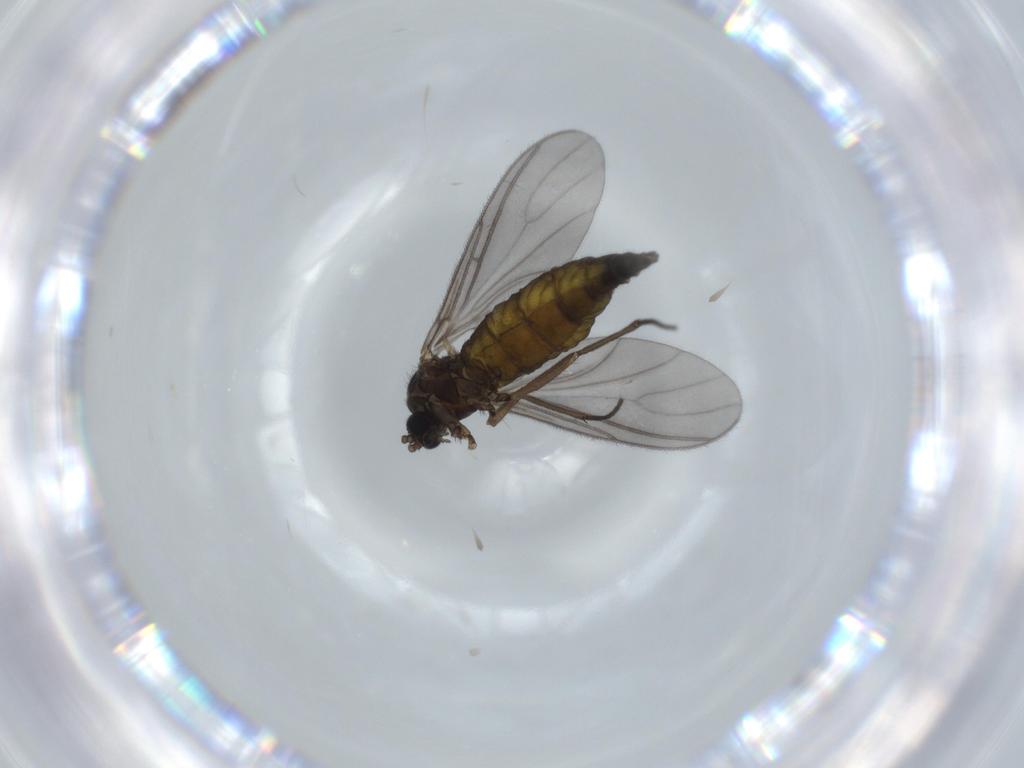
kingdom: Animalia
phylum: Arthropoda
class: Insecta
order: Diptera
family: Sciaridae
